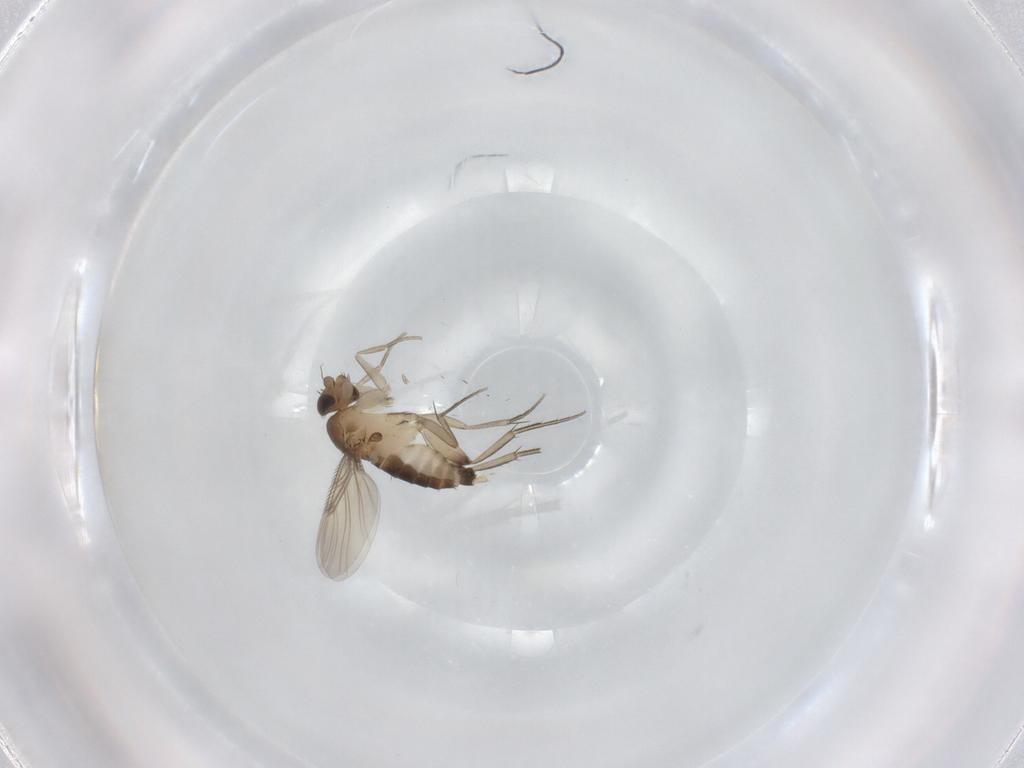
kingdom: Animalia
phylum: Arthropoda
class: Insecta
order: Diptera
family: Phoridae
